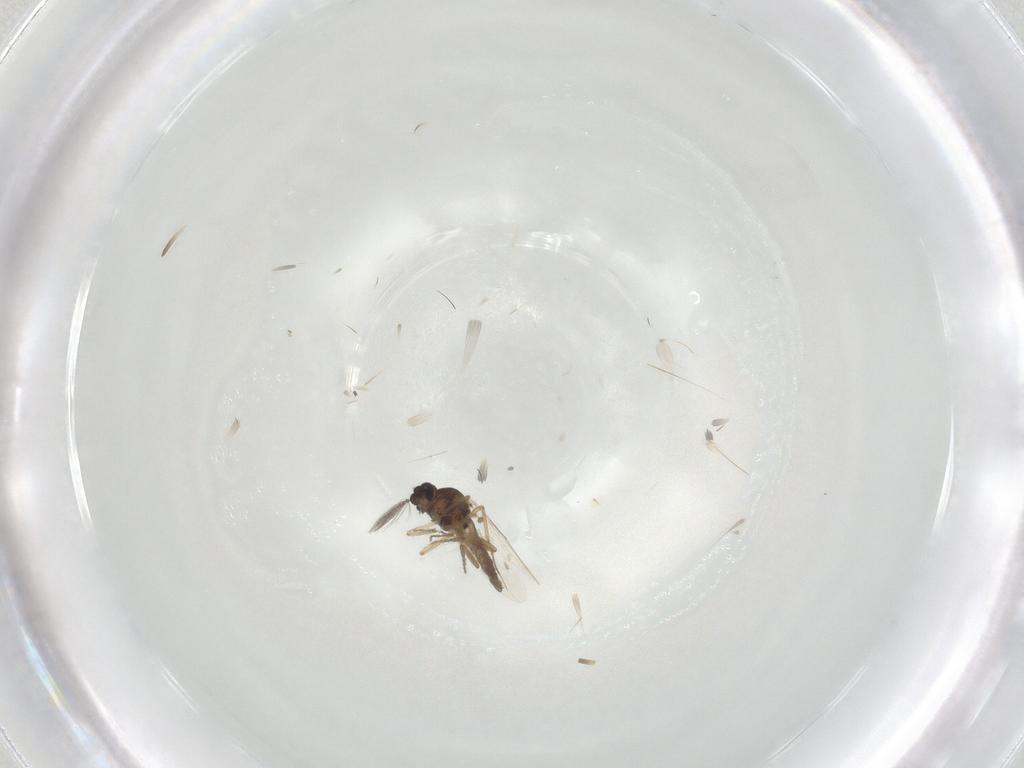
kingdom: Animalia
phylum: Arthropoda
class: Insecta
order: Diptera
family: Ceratopogonidae
